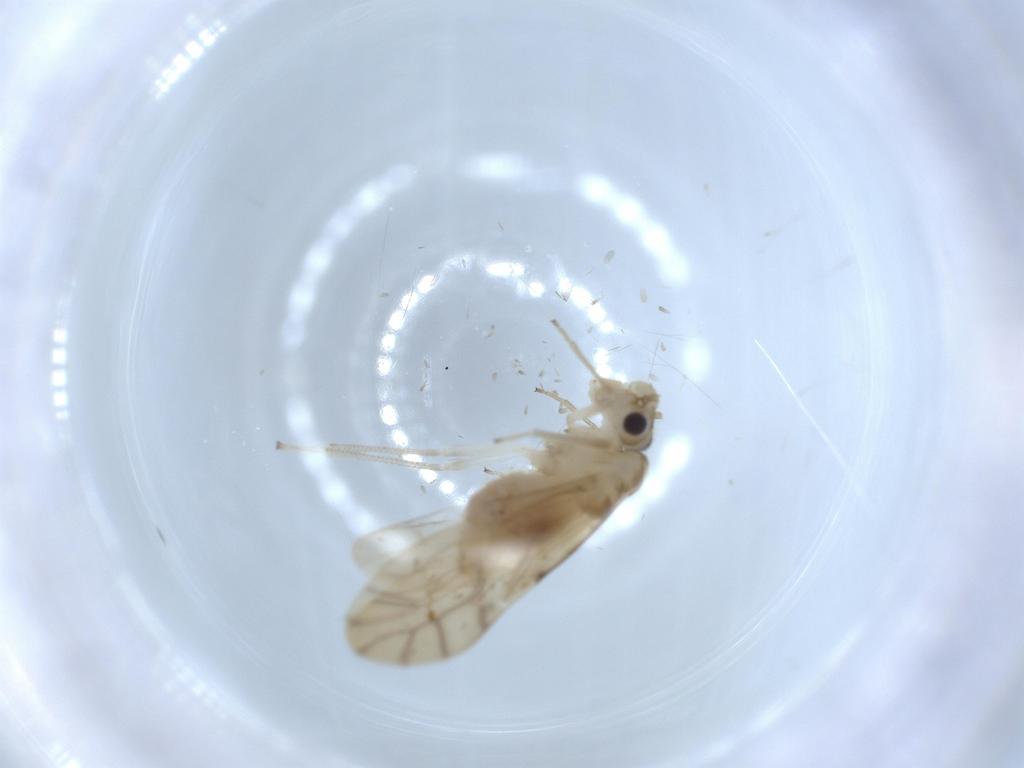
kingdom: Animalia
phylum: Arthropoda
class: Insecta
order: Psocodea
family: Caeciliusidae
